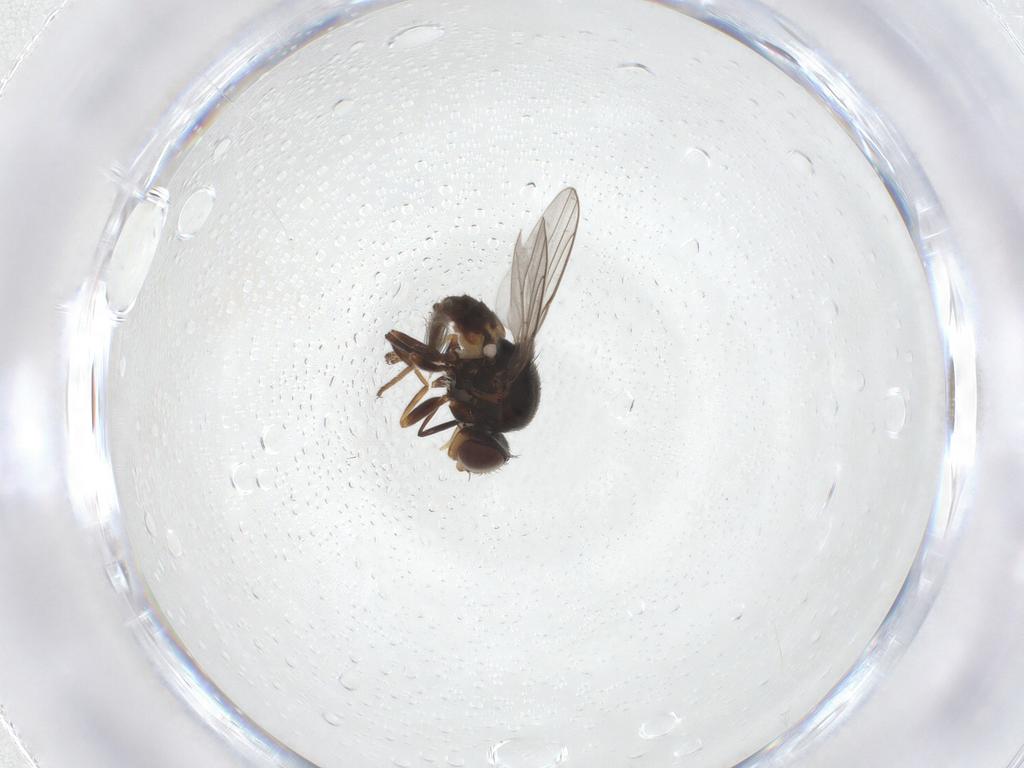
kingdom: Animalia
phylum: Arthropoda
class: Insecta
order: Diptera
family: Chloropidae
